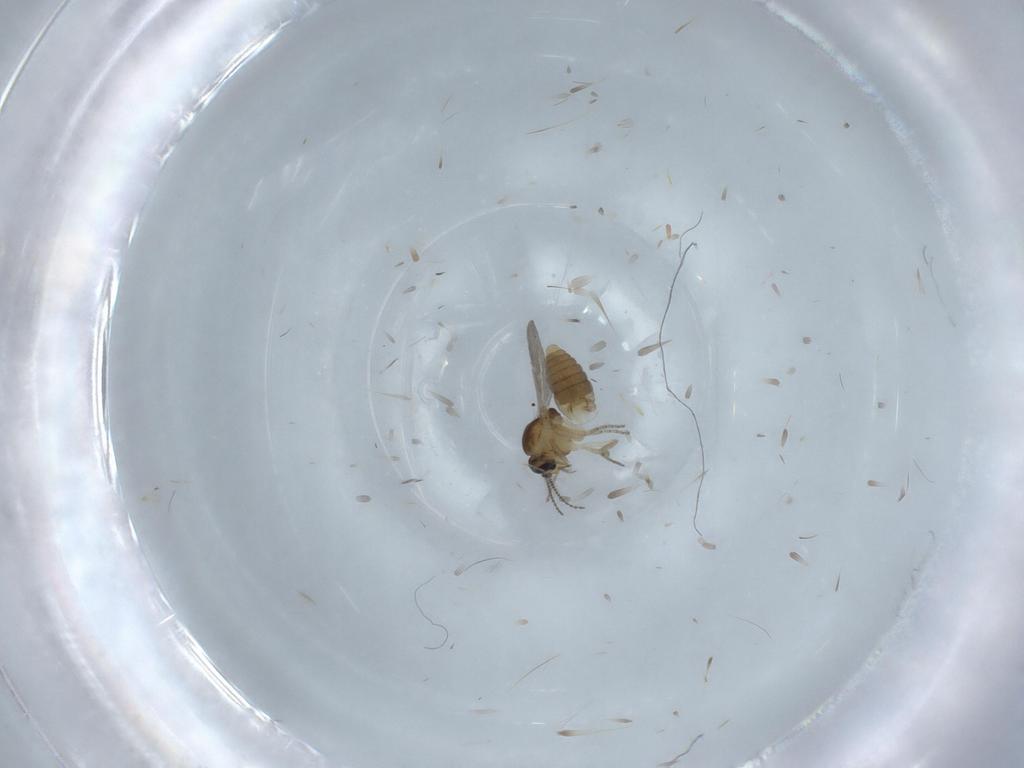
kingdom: Animalia
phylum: Arthropoda
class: Insecta
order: Diptera
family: Ceratopogonidae
